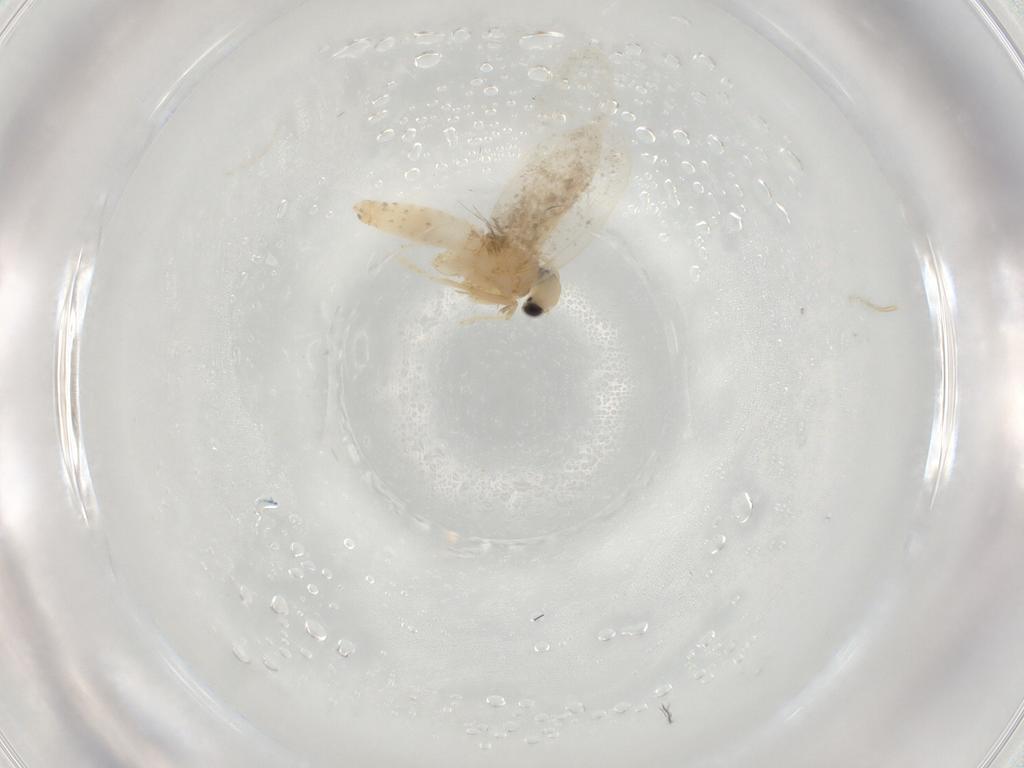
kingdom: Animalia
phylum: Arthropoda
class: Insecta
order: Lepidoptera
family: Psychidae
